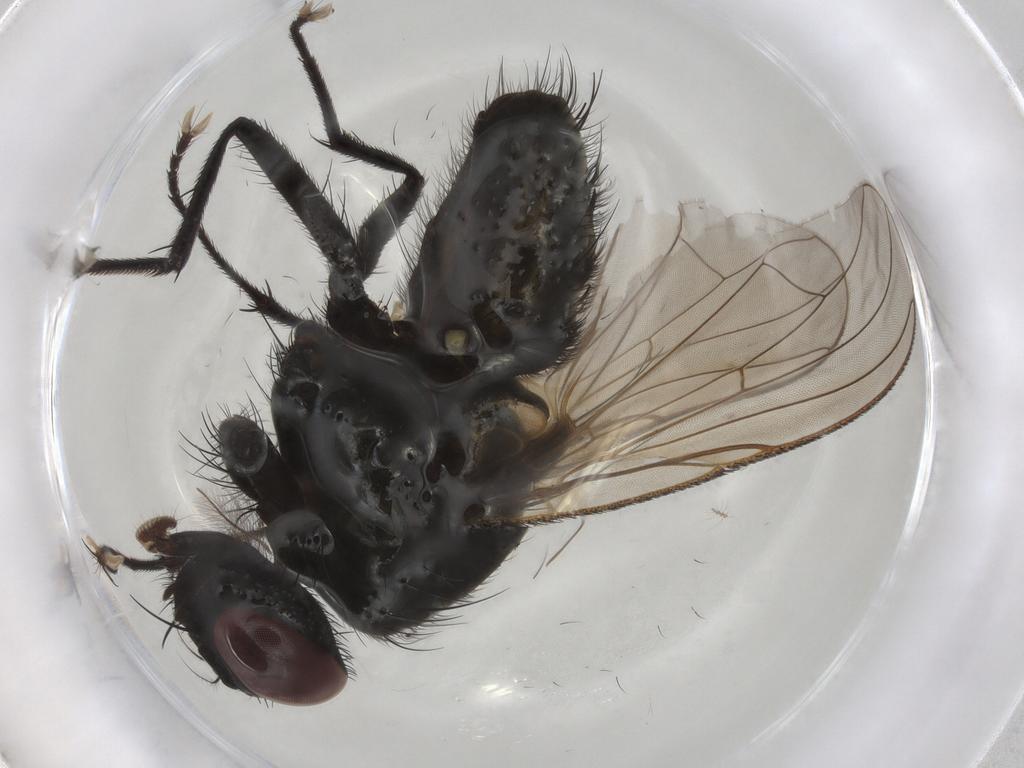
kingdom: Animalia
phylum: Arthropoda
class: Insecta
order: Diptera
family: Muscidae
